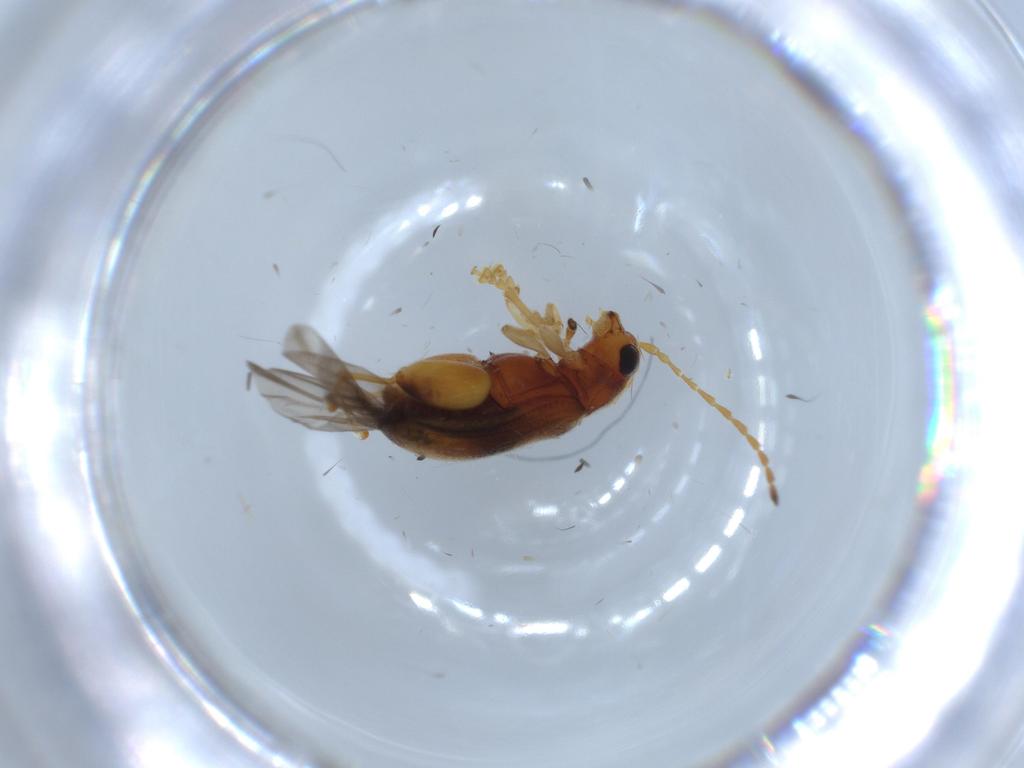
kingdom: Animalia
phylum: Arthropoda
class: Insecta
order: Coleoptera
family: Chrysomelidae
